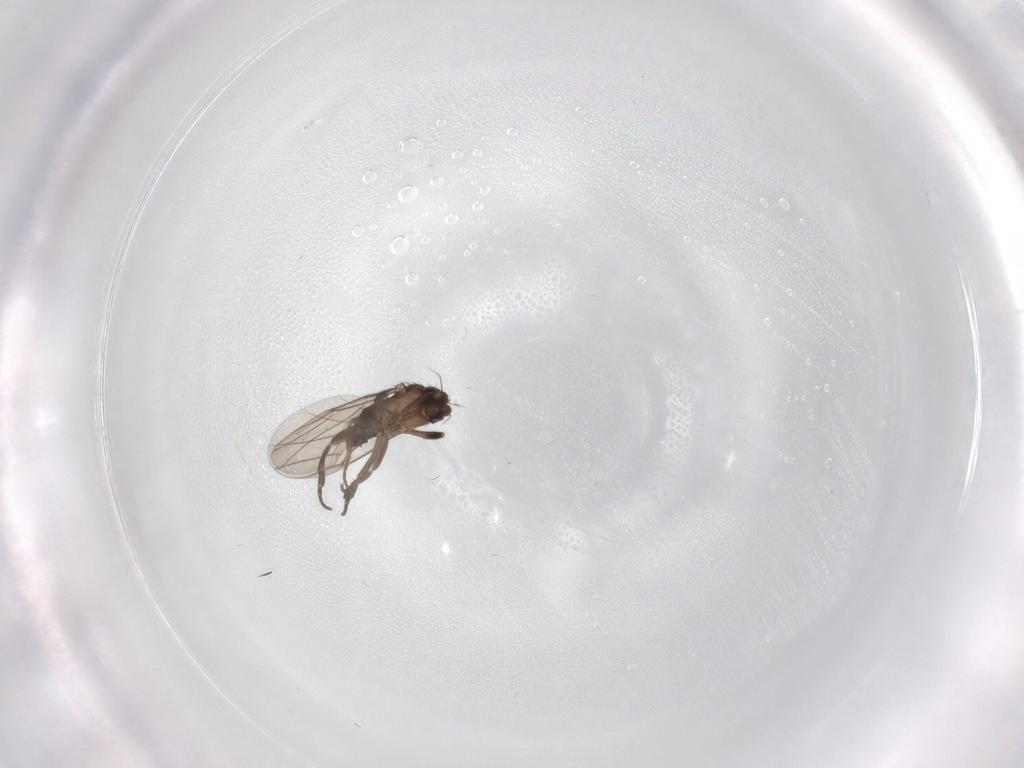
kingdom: Animalia
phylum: Arthropoda
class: Insecta
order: Diptera
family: Phoridae
